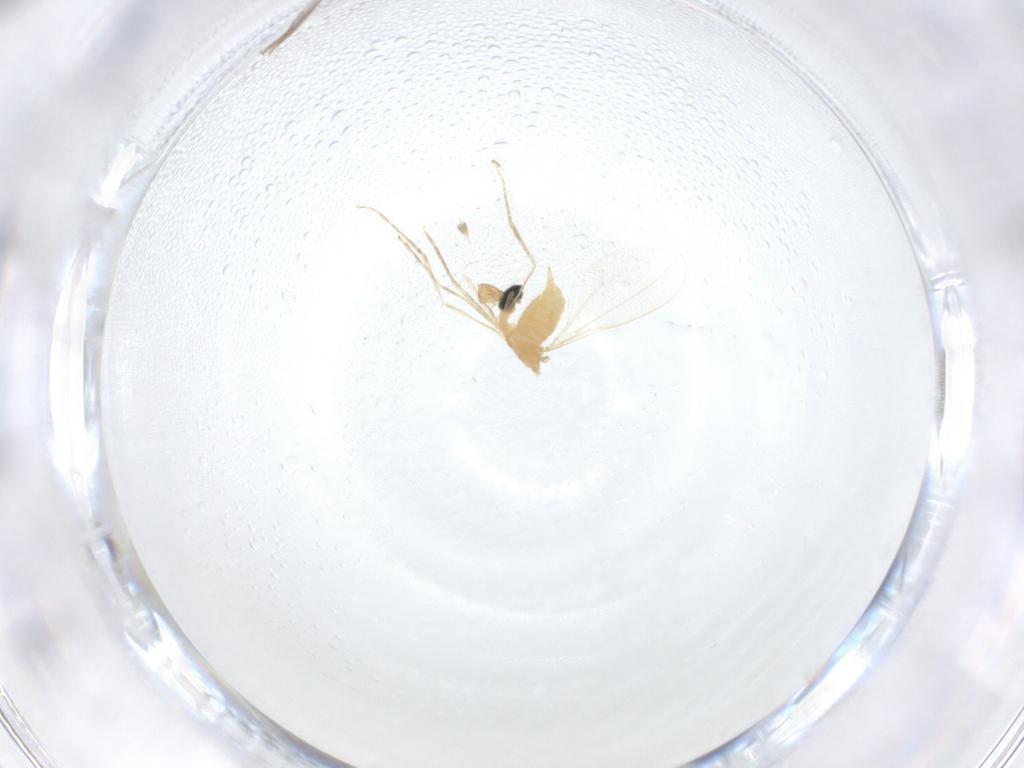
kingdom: Animalia
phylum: Arthropoda
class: Insecta
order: Diptera
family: Cecidomyiidae
